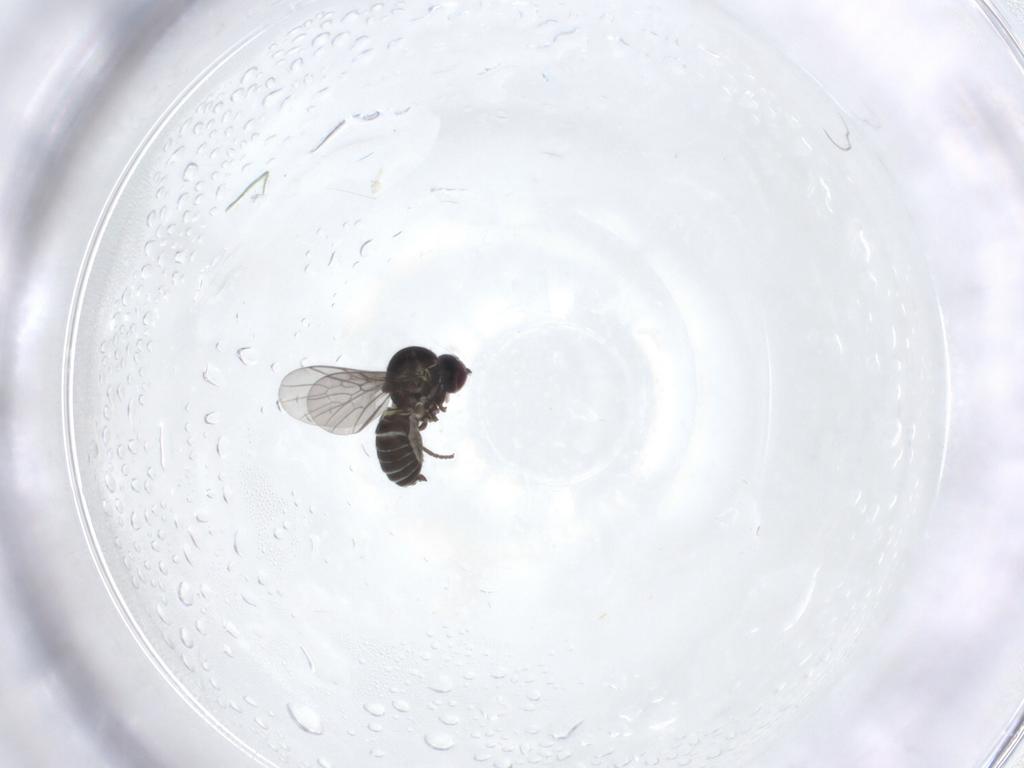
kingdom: Animalia
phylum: Arthropoda
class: Insecta
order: Diptera
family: Mythicomyiidae
